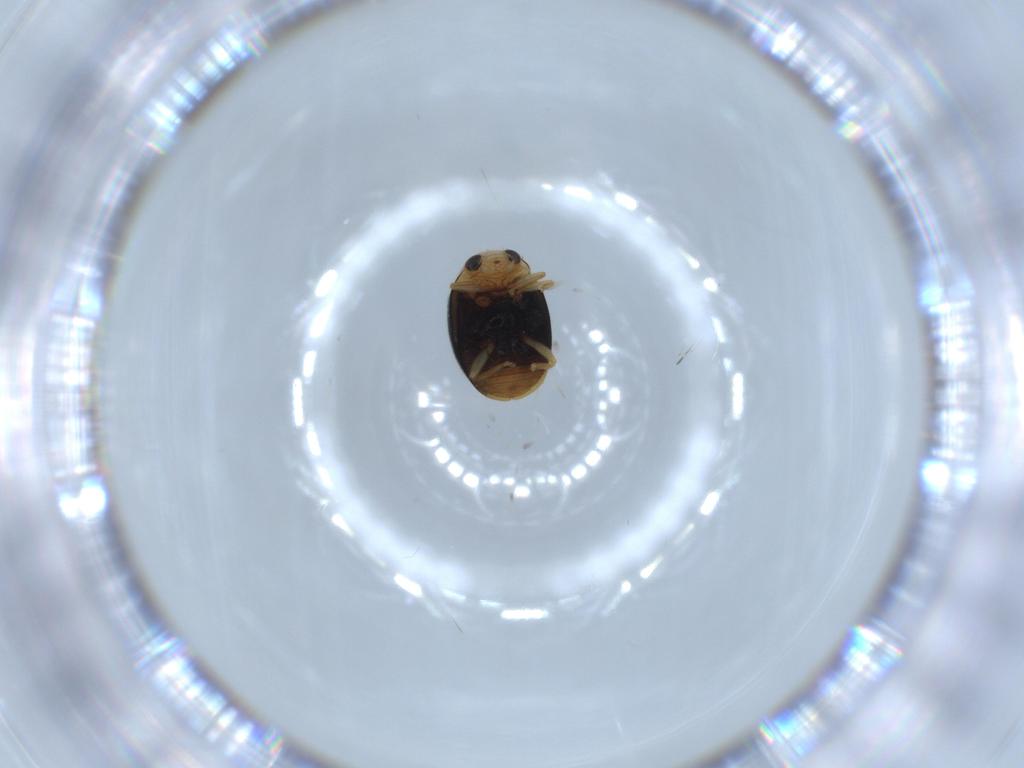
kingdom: Animalia
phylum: Arthropoda
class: Insecta
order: Coleoptera
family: Coccinellidae
